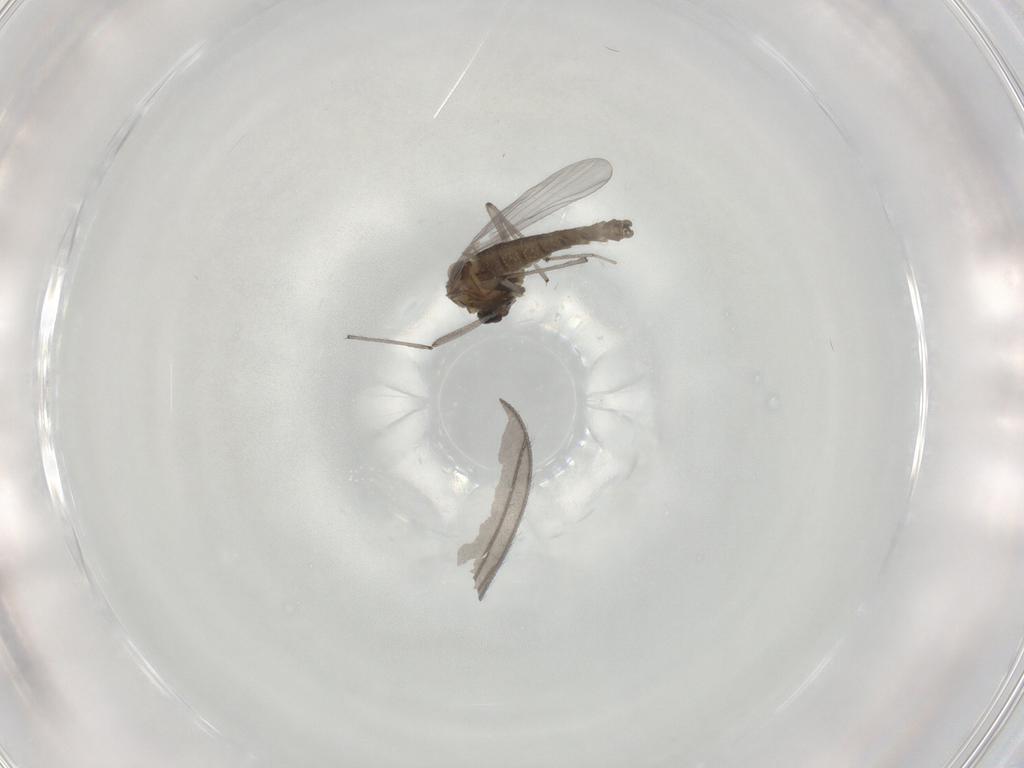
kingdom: Animalia
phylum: Arthropoda
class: Insecta
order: Diptera
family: Chironomidae
